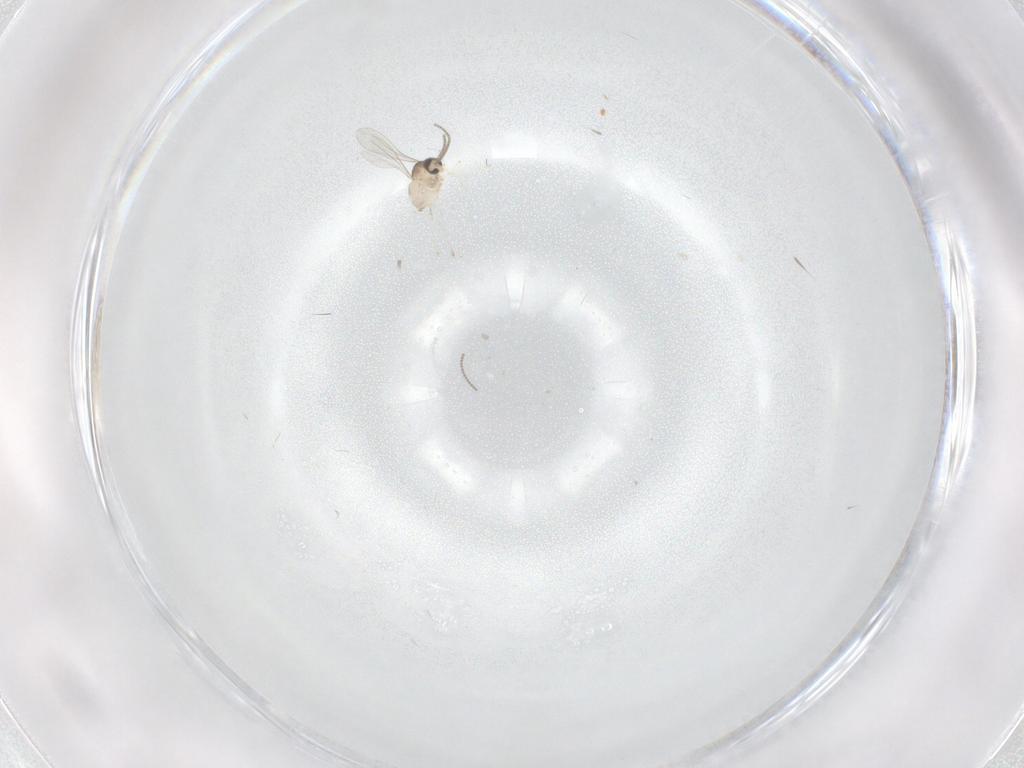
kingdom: Animalia
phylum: Arthropoda
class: Insecta
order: Diptera
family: Cecidomyiidae
